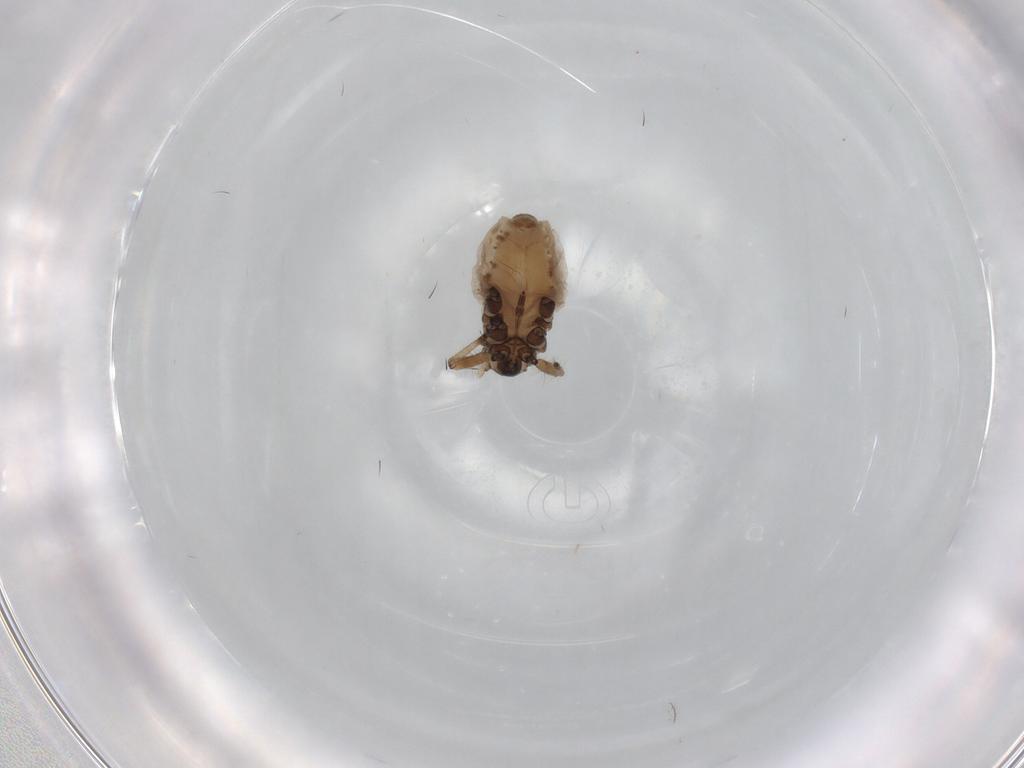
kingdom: Animalia
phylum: Arthropoda
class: Insecta
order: Hemiptera
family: Aphididae
